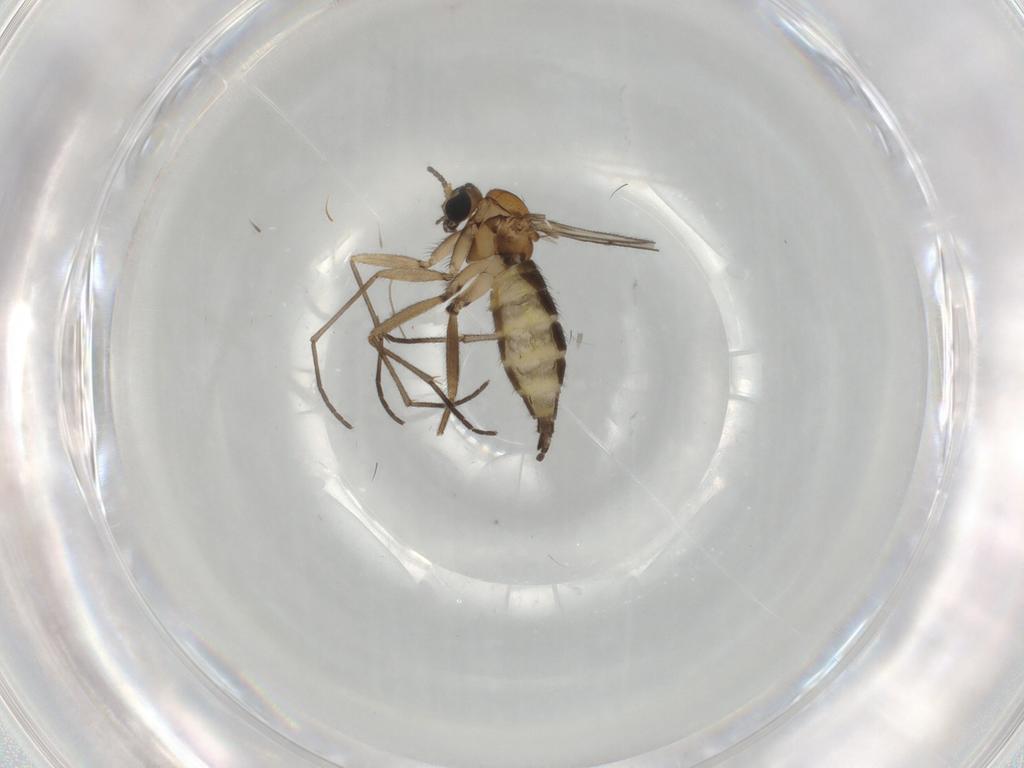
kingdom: Animalia
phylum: Arthropoda
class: Insecta
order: Diptera
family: Sciaridae
